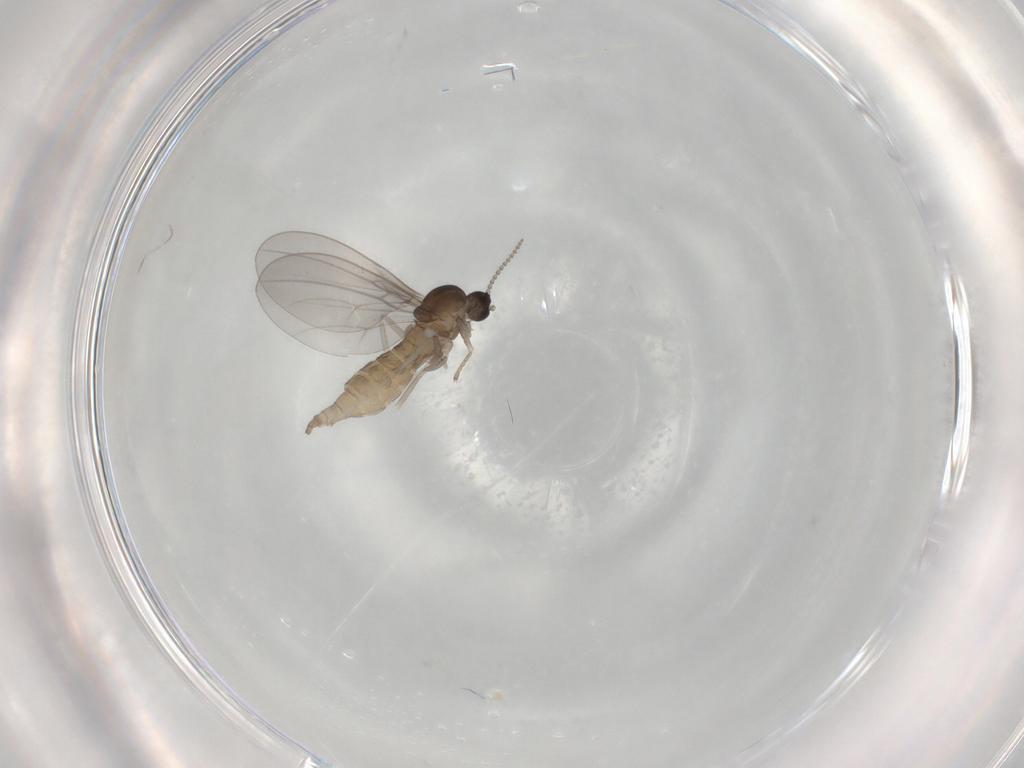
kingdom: Animalia
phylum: Arthropoda
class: Insecta
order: Diptera
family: Cecidomyiidae
